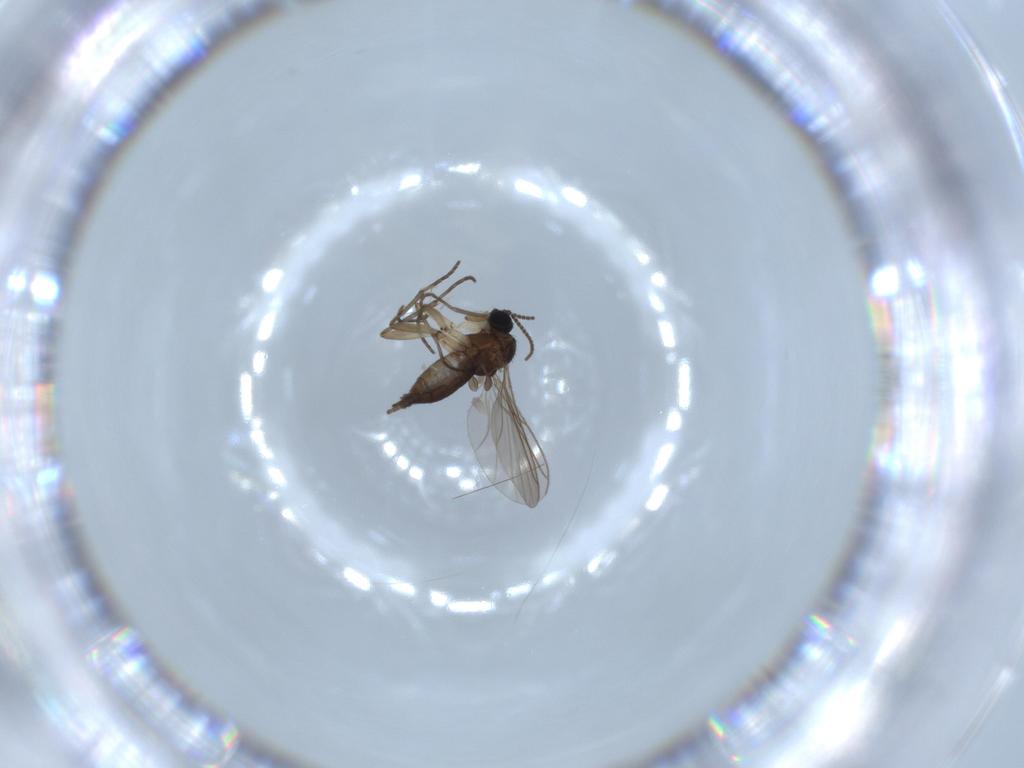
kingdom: Animalia
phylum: Arthropoda
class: Insecta
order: Diptera
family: Sciaridae
